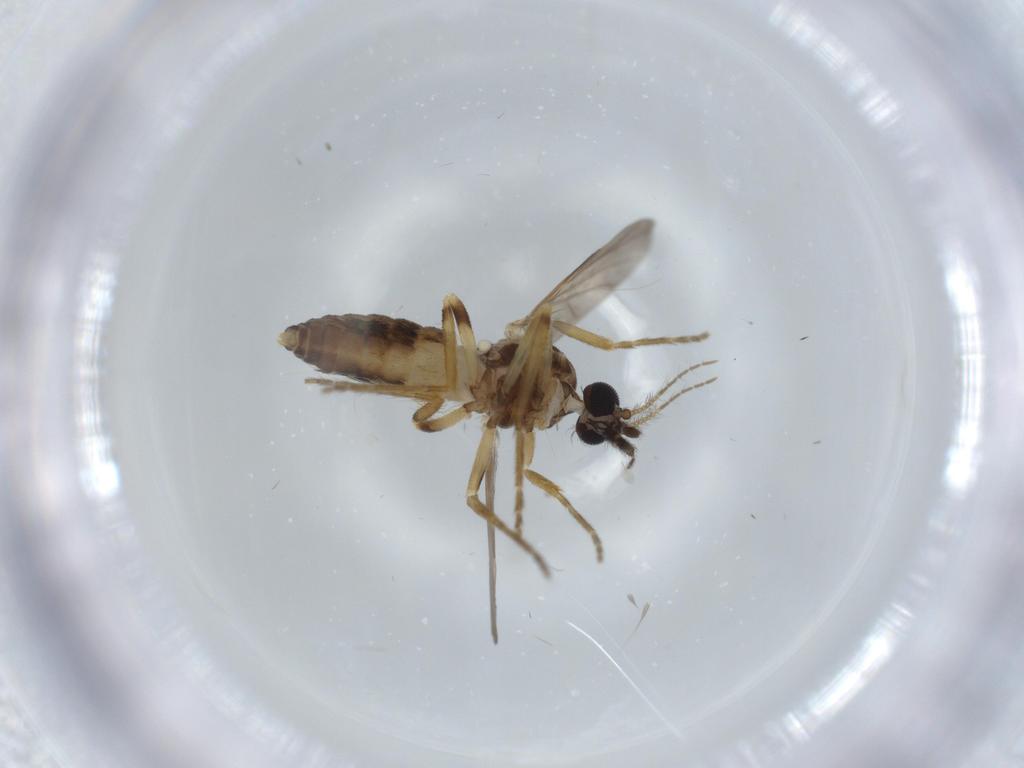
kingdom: Animalia
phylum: Arthropoda
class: Insecta
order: Diptera
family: Ceratopogonidae
